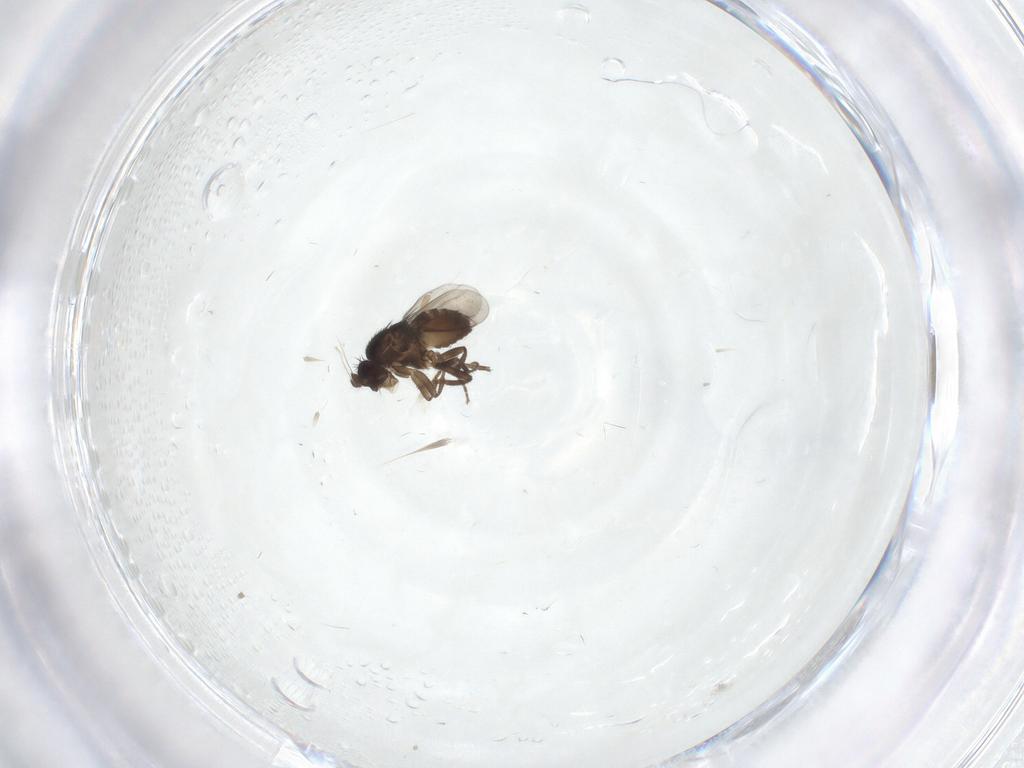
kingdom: Animalia
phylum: Arthropoda
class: Insecta
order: Diptera
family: Sphaeroceridae
